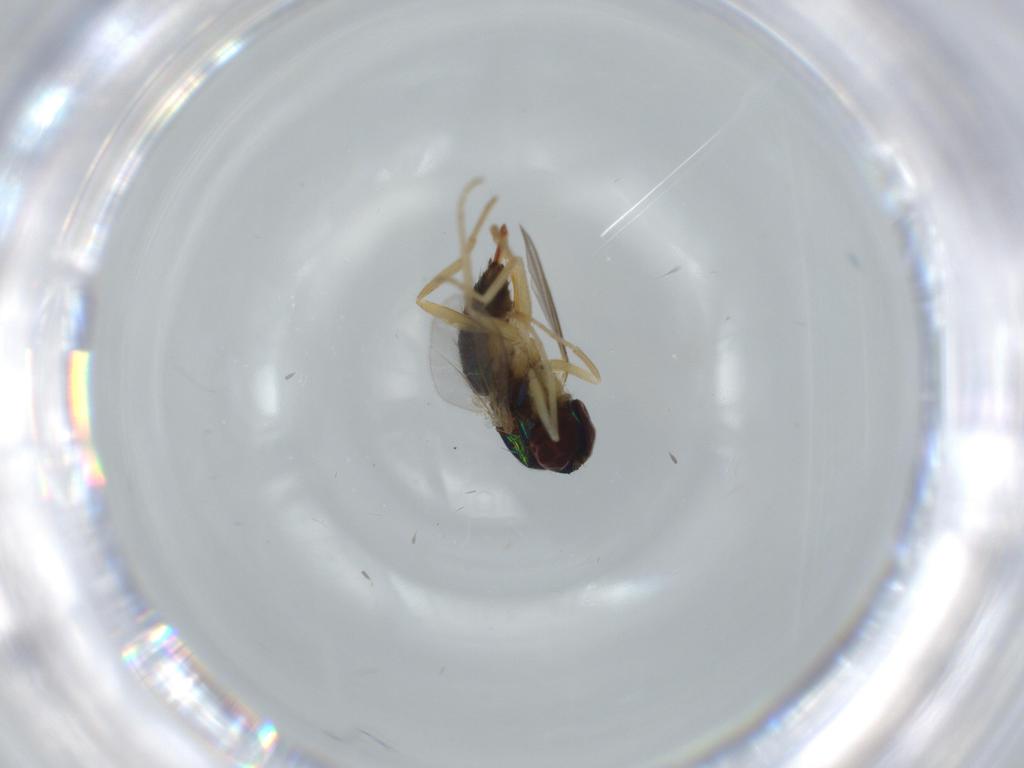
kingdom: Animalia
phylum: Arthropoda
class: Insecta
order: Diptera
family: Dolichopodidae
